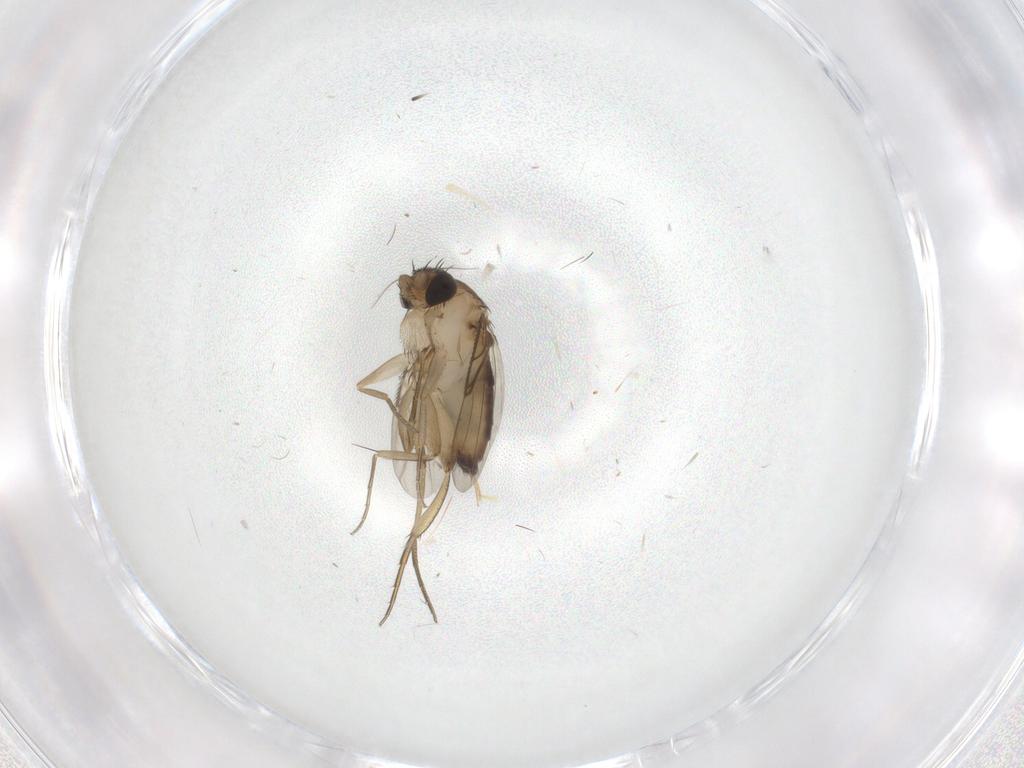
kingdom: Animalia
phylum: Arthropoda
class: Insecta
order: Diptera
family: Phoridae
